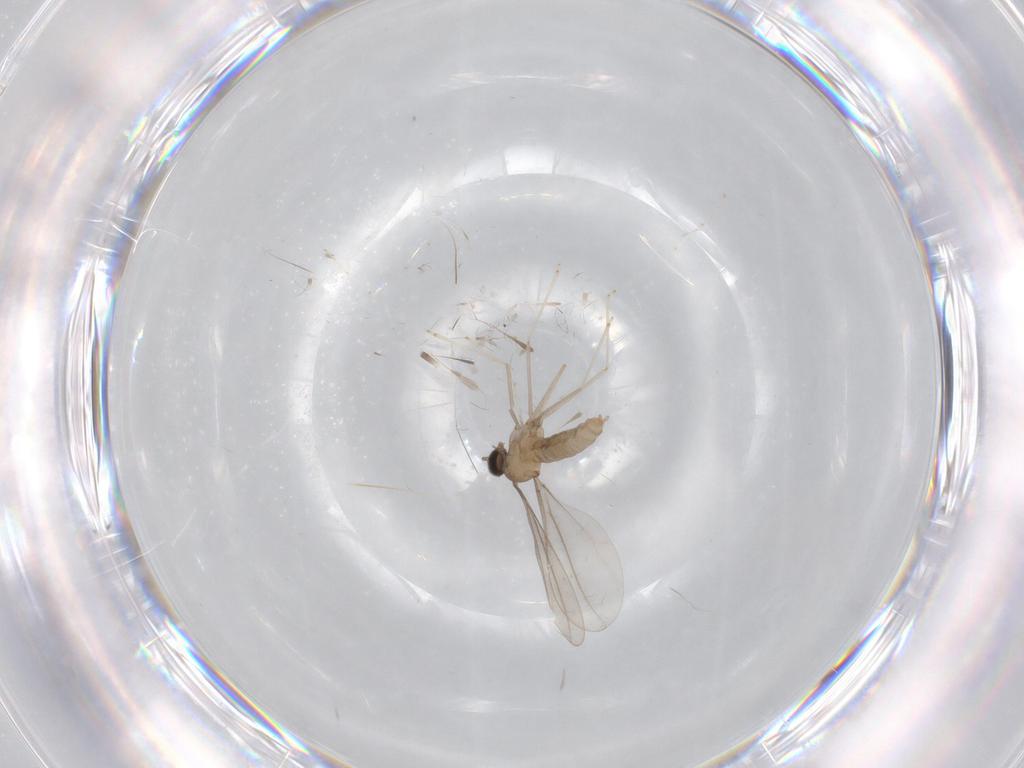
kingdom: Animalia
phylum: Arthropoda
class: Insecta
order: Diptera
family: Cecidomyiidae
